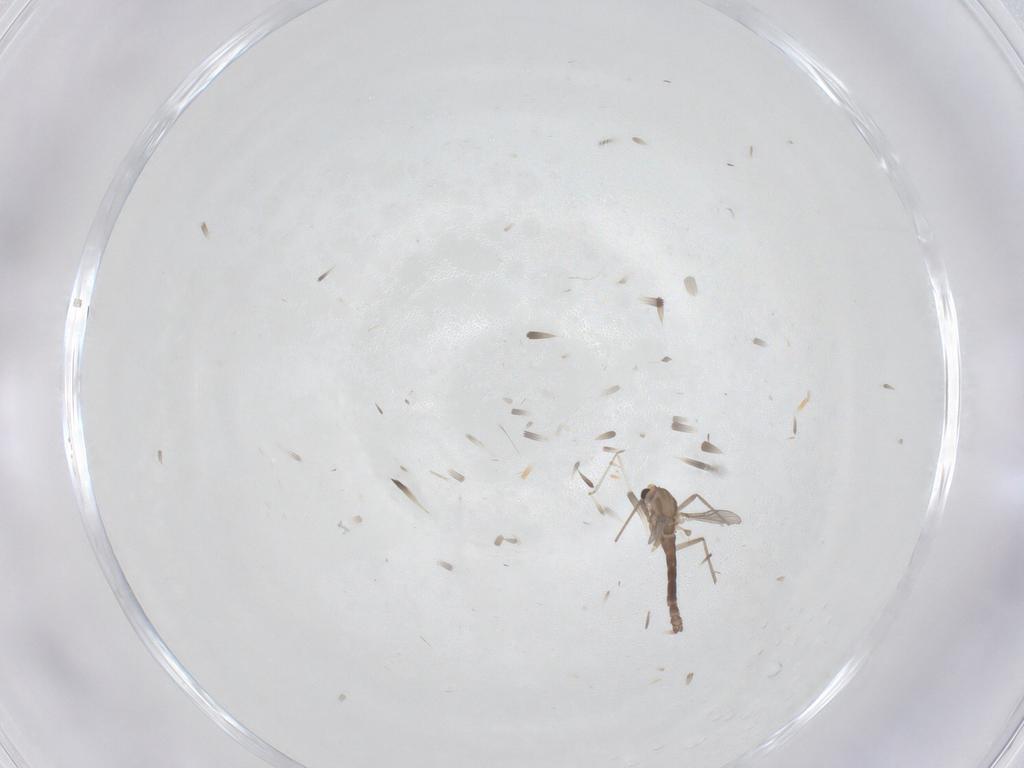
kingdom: Animalia
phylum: Arthropoda
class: Insecta
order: Diptera
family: Chironomidae
